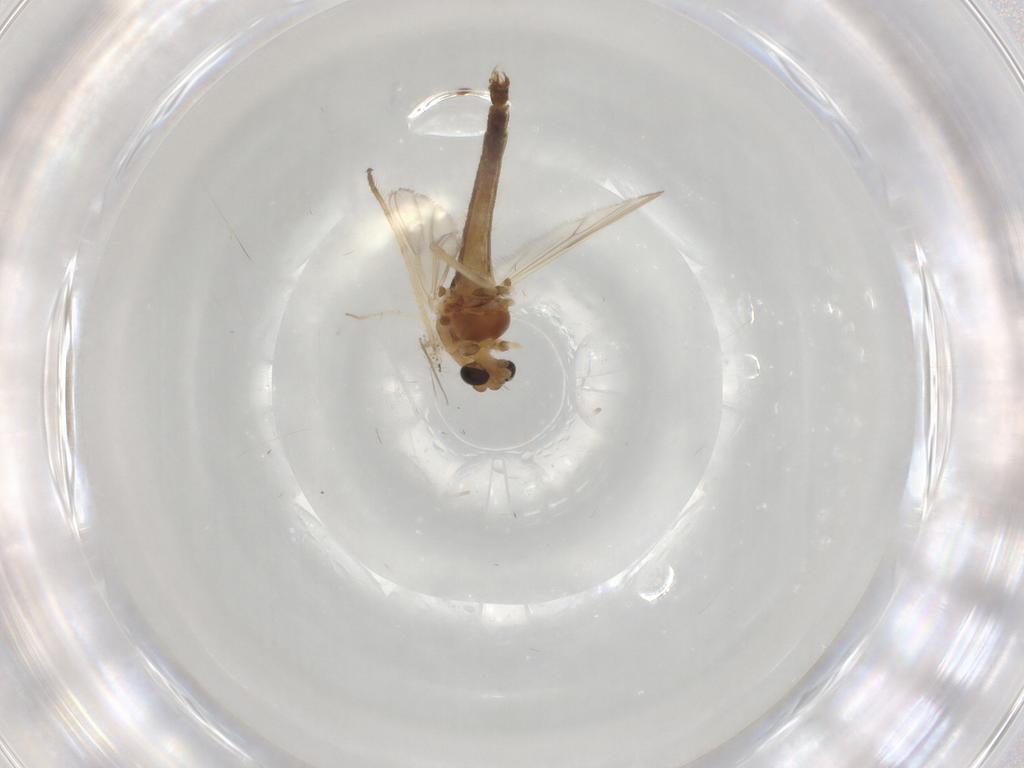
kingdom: Animalia
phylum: Arthropoda
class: Insecta
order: Diptera
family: Chironomidae
